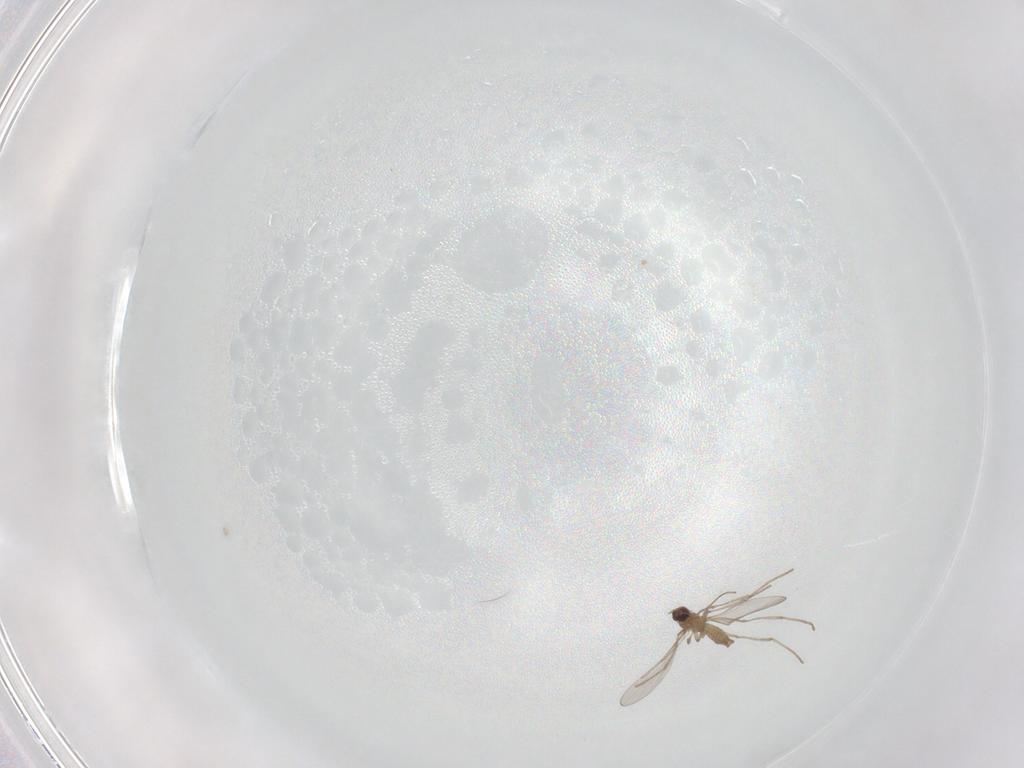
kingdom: Animalia
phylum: Arthropoda
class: Insecta
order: Diptera
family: Cecidomyiidae
